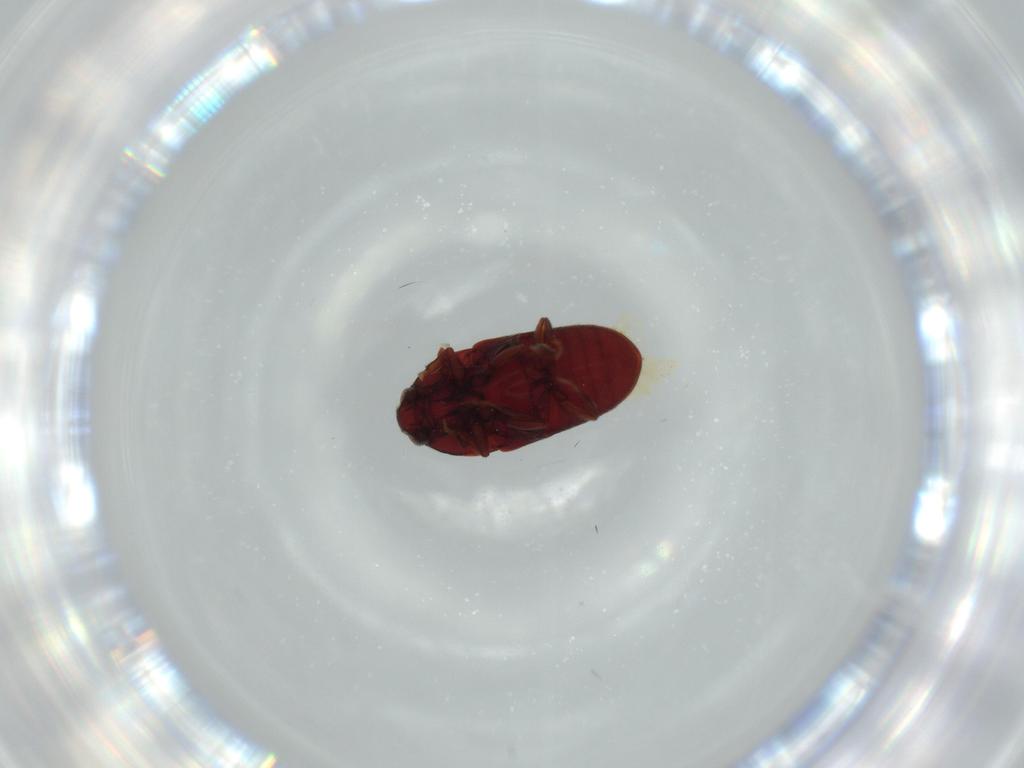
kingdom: Animalia
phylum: Arthropoda
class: Insecta
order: Coleoptera
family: Throscidae
